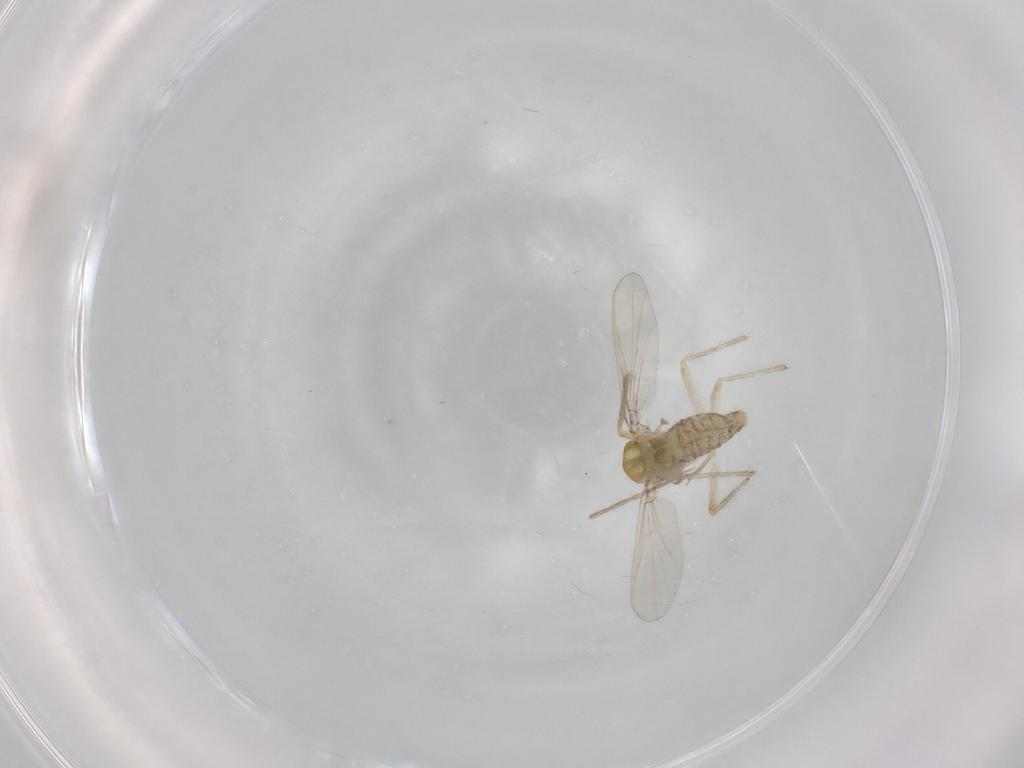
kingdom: Animalia
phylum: Arthropoda
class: Insecta
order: Diptera
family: Chironomidae
